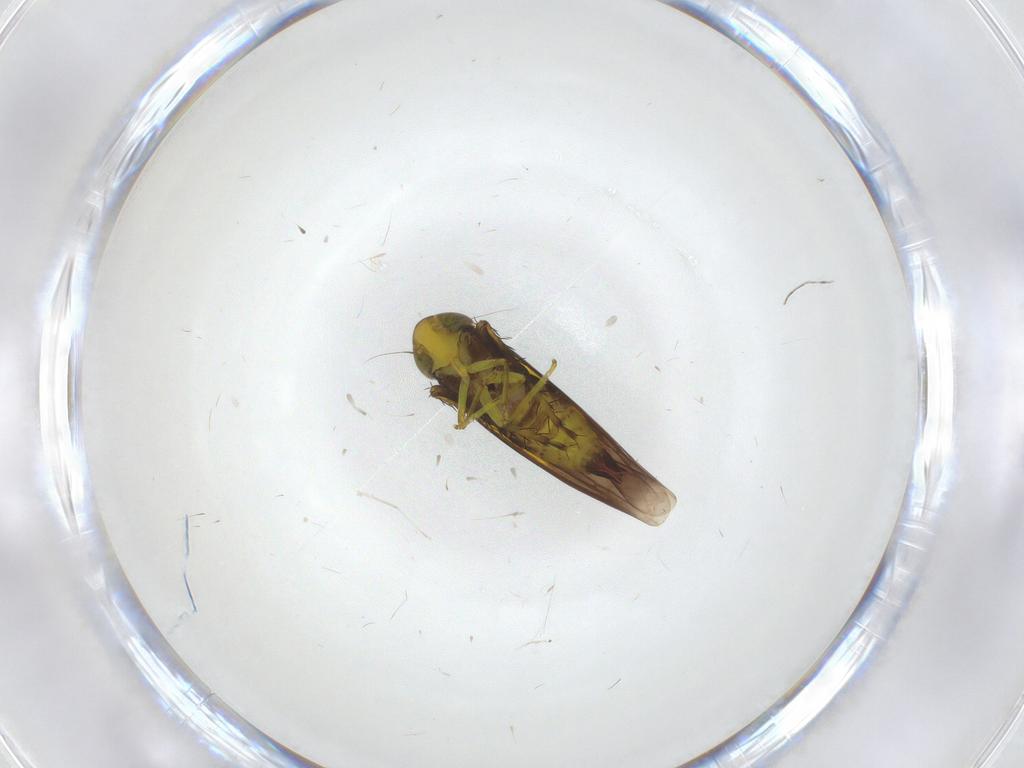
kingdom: Animalia
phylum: Arthropoda
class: Insecta
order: Hemiptera
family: Cicadellidae
